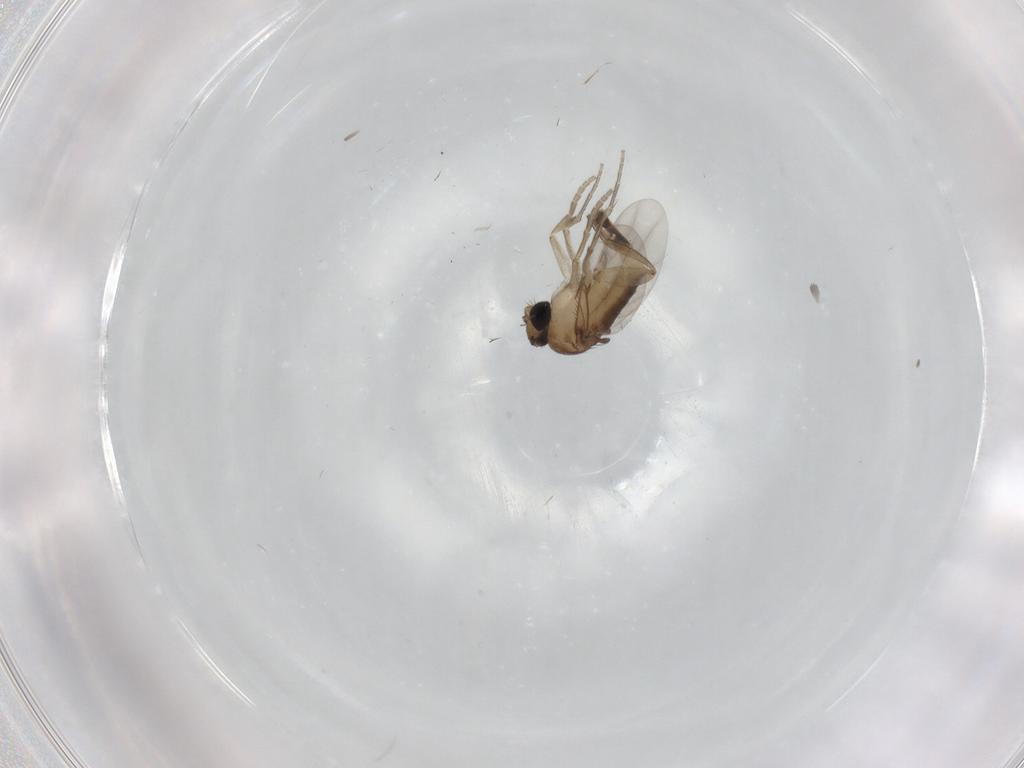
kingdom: Animalia
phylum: Arthropoda
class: Insecta
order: Diptera
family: Phoridae
